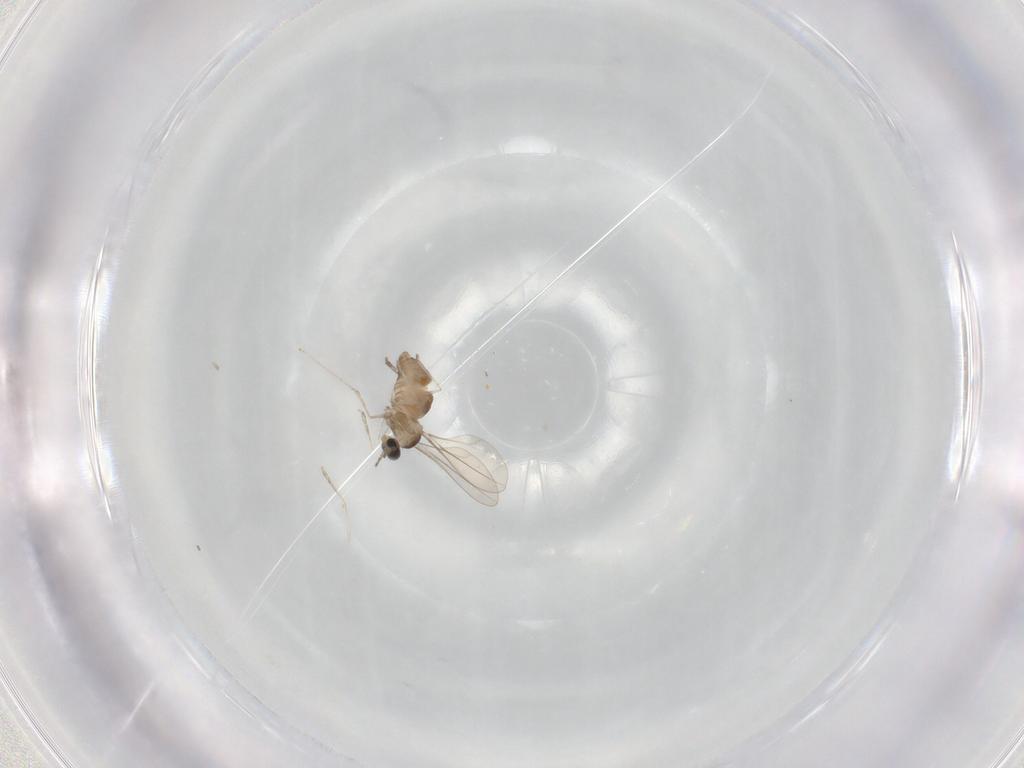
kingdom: Animalia
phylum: Arthropoda
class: Insecta
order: Diptera
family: Cecidomyiidae
